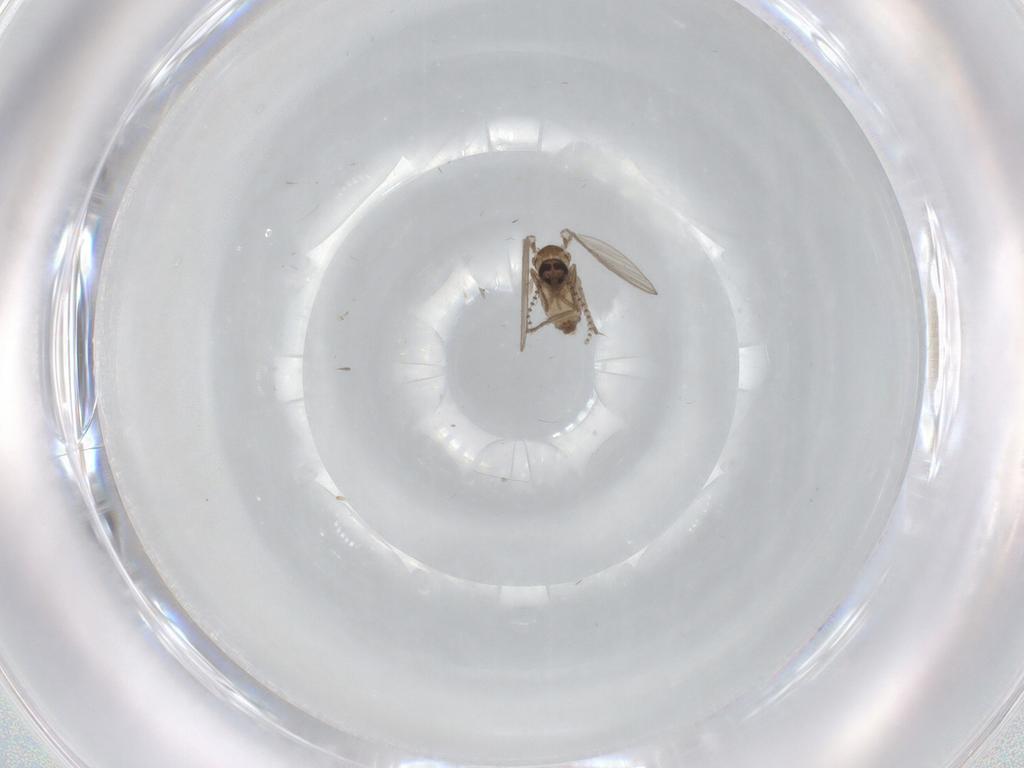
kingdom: Animalia
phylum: Arthropoda
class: Insecta
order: Diptera
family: Psychodidae
